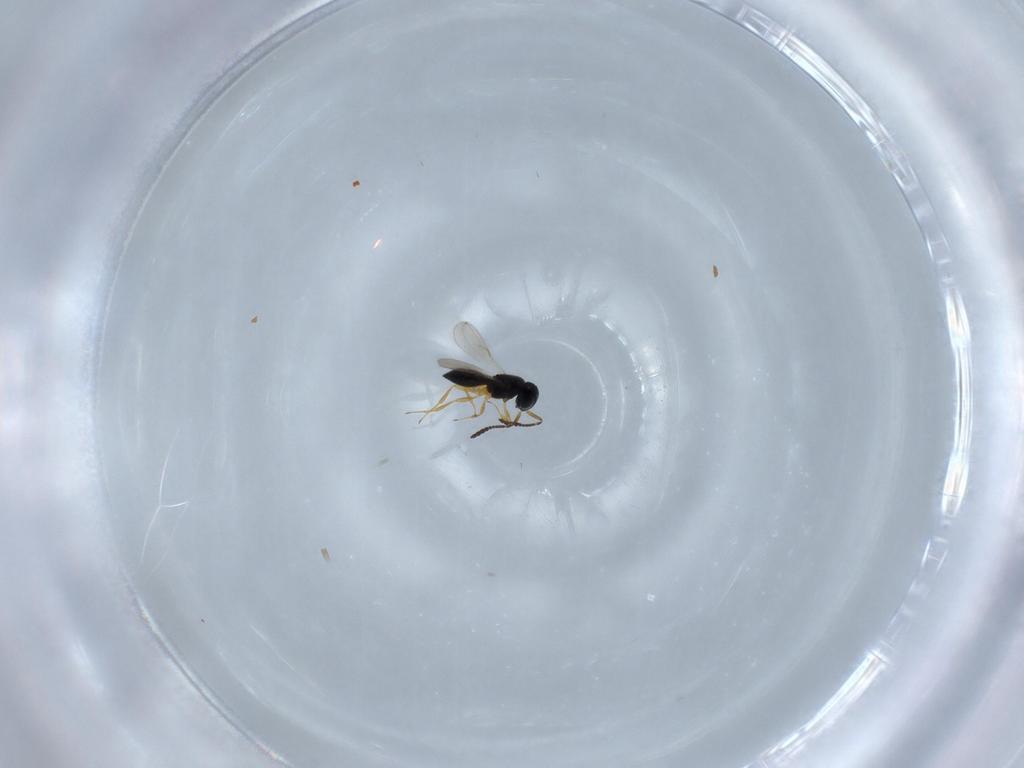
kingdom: Animalia
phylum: Arthropoda
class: Insecta
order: Hymenoptera
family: Scelionidae
